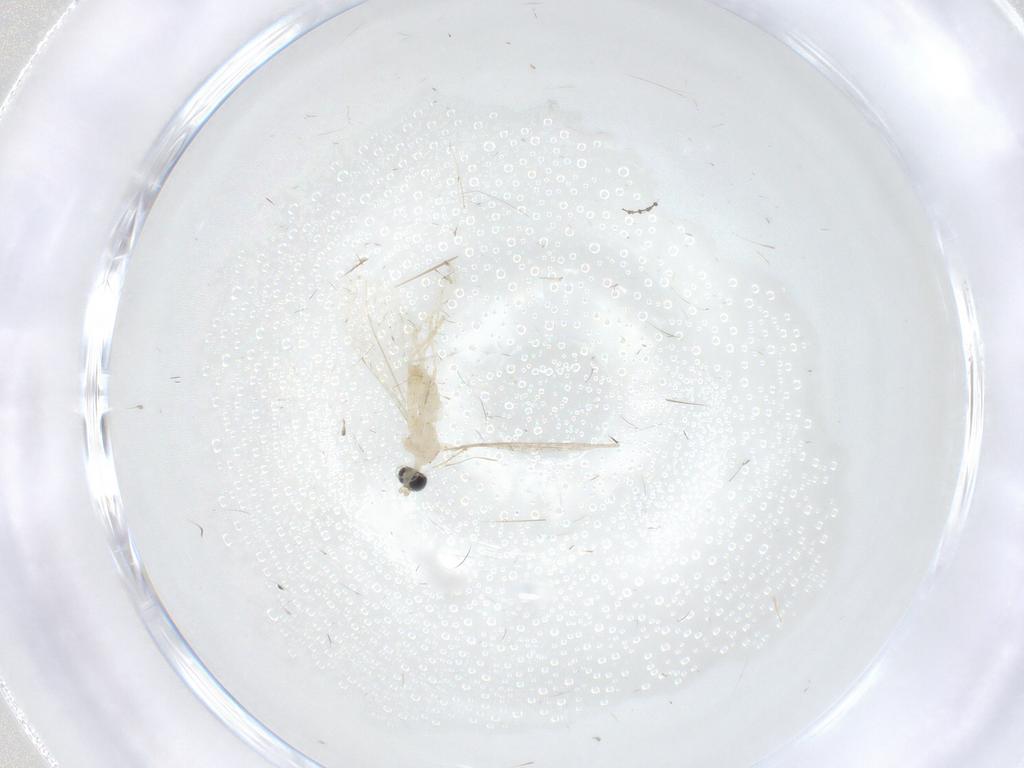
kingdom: Animalia
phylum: Arthropoda
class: Insecta
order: Diptera
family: Cecidomyiidae
